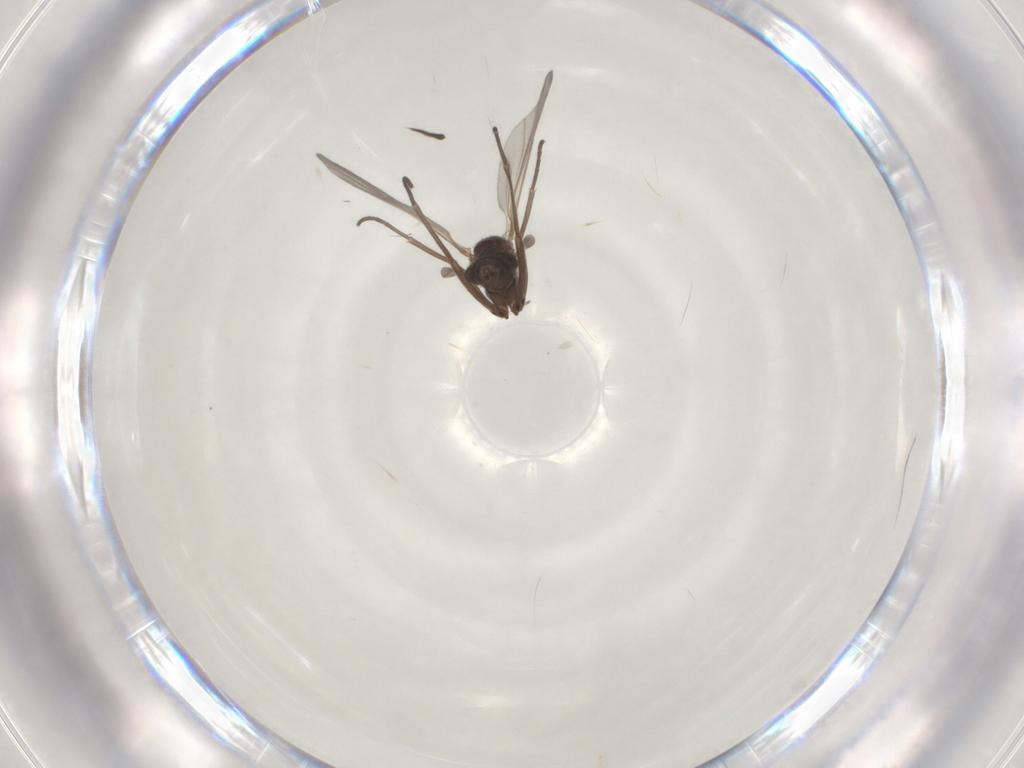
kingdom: Animalia
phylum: Arthropoda
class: Insecta
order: Diptera
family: Sciaridae
